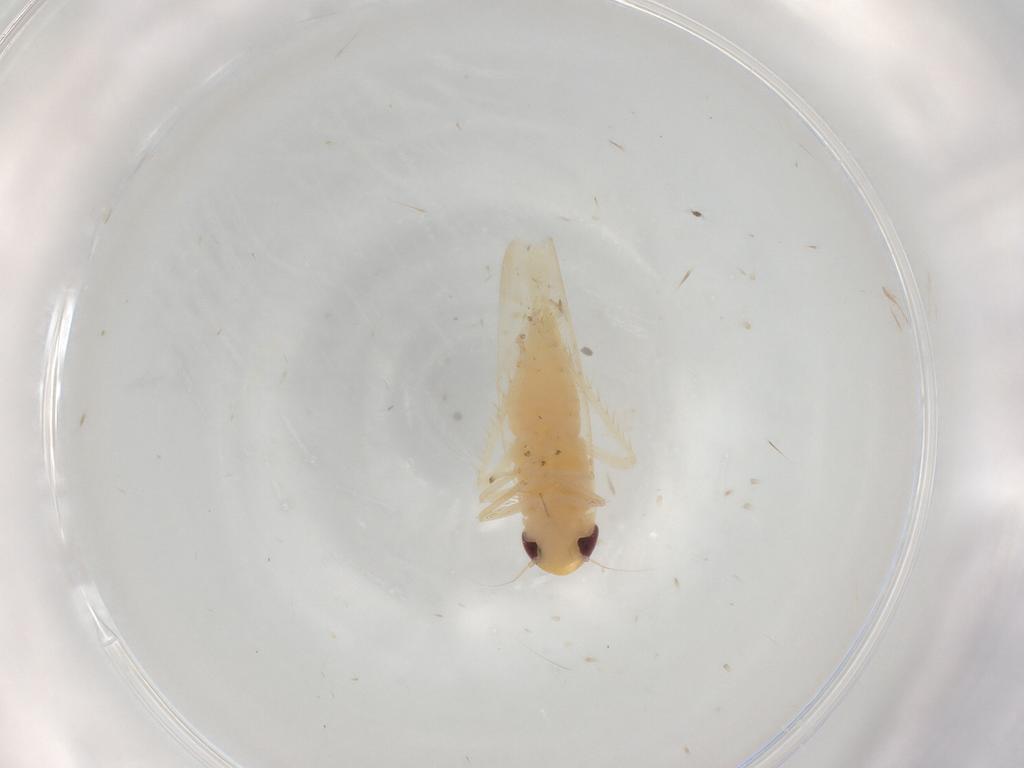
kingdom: Animalia
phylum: Arthropoda
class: Insecta
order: Hemiptera
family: Cicadellidae
